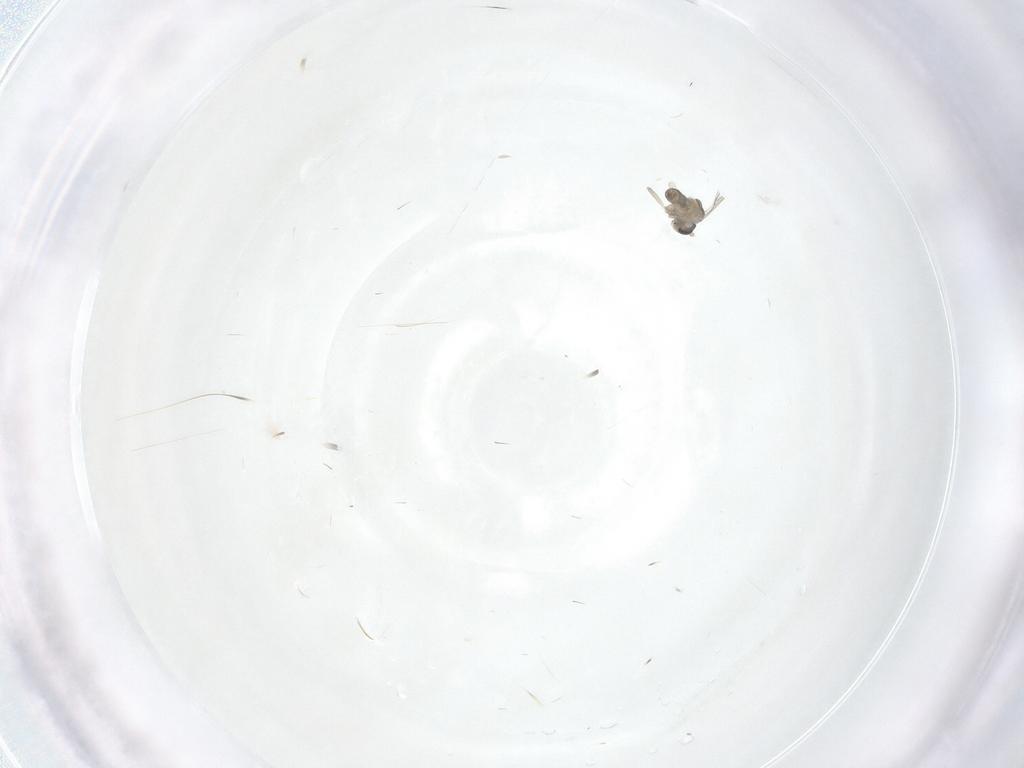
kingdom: Animalia
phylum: Arthropoda
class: Insecta
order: Diptera
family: Cecidomyiidae
